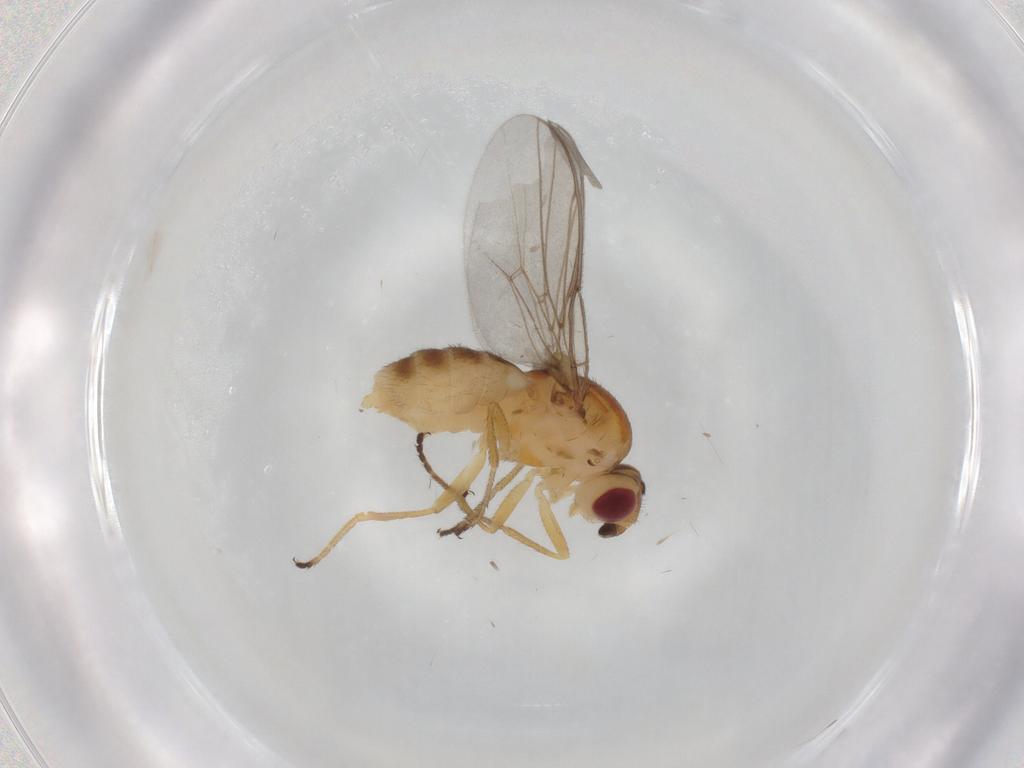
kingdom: Animalia
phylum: Arthropoda
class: Insecta
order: Diptera
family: Chloropidae
